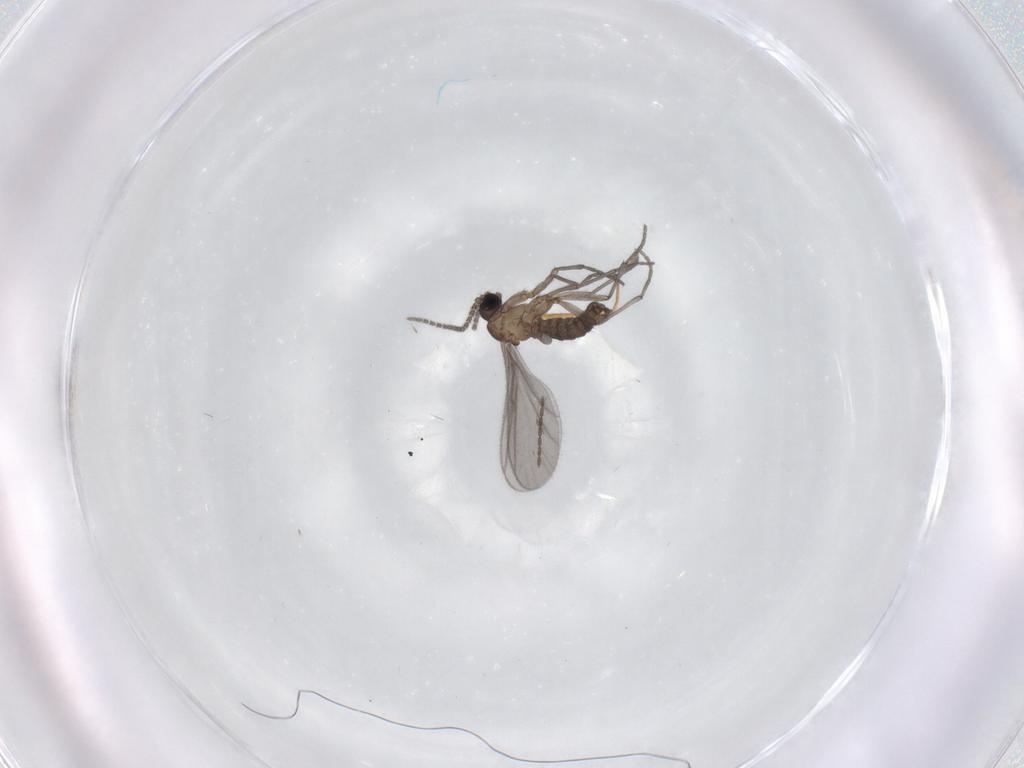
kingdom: Animalia
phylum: Arthropoda
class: Insecta
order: Diptera
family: Sciaridae
